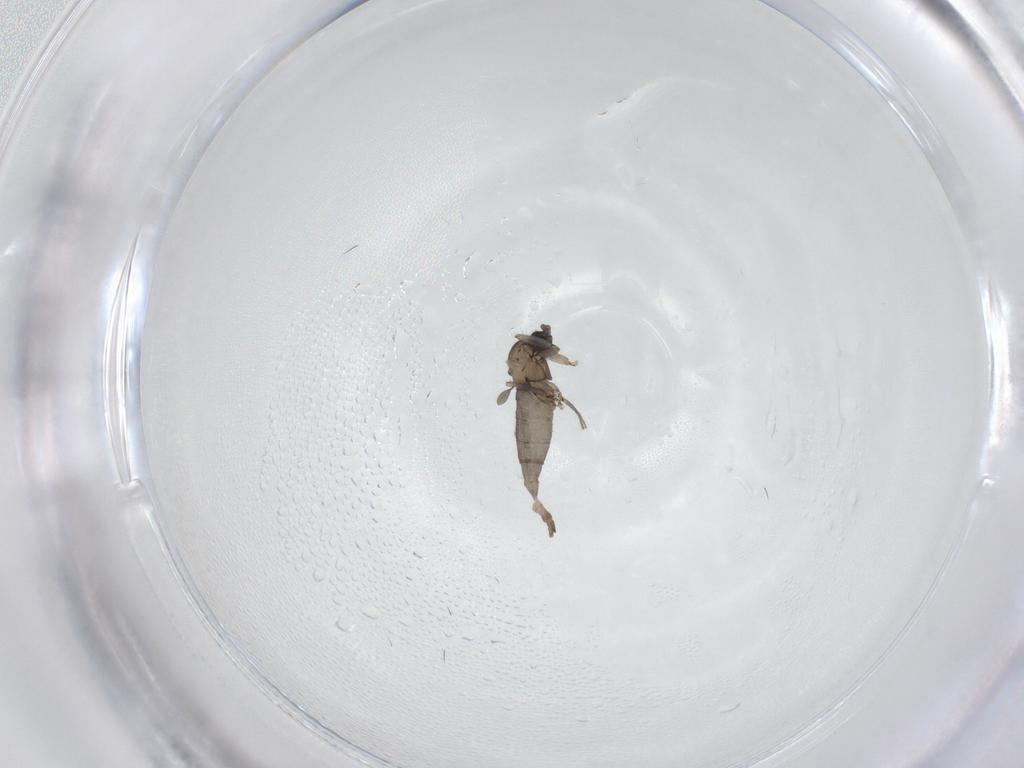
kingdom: Animalia
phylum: Arthropoda
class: Insecta
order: Diptera
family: Sciaridae
